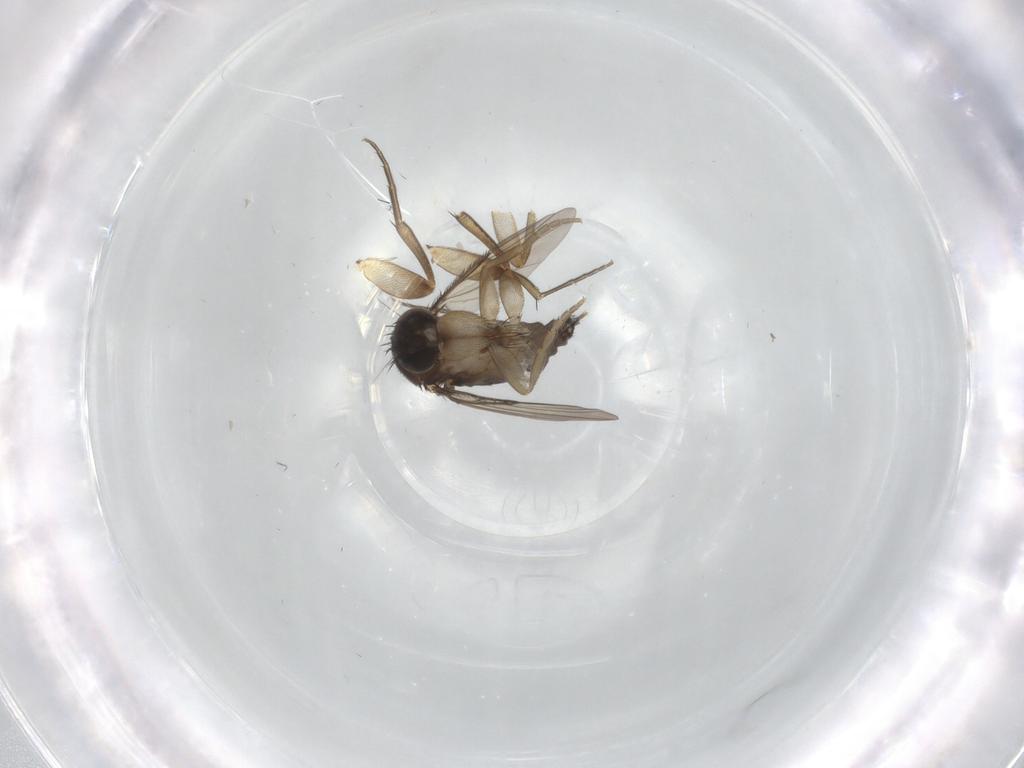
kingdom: Animalia
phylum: Arthropoda
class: Insecta
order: Diptera
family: Phoridae
